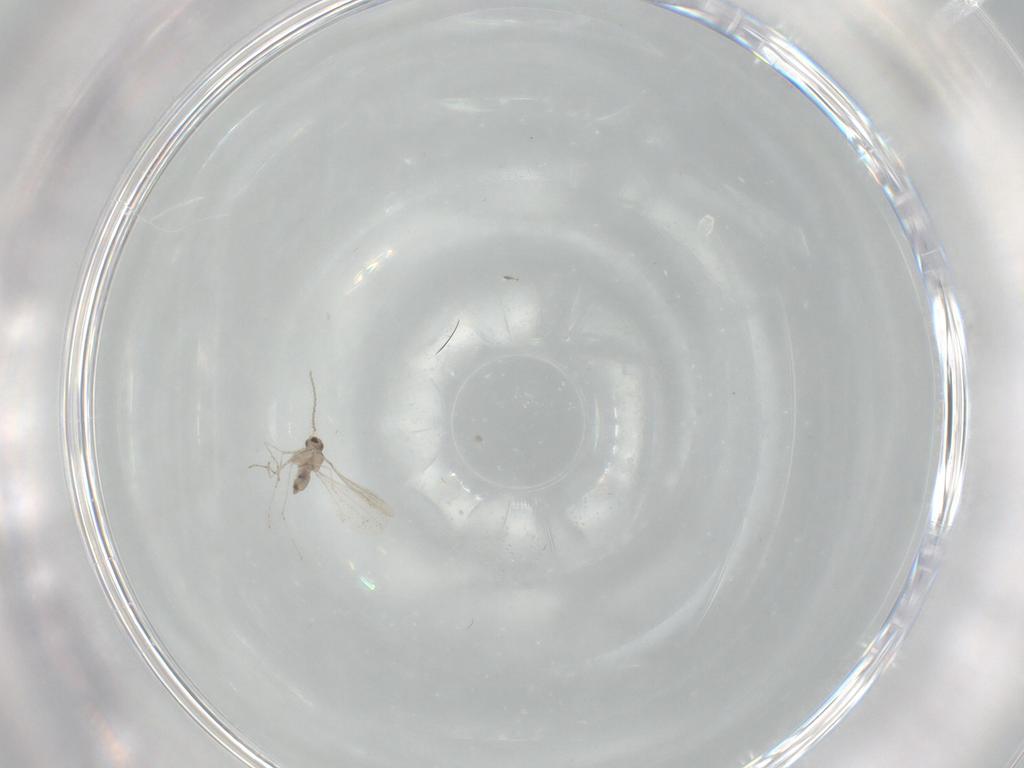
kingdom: Animalia
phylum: Arthropoda
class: Insecta
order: Diptera
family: Cecidomyiidae
